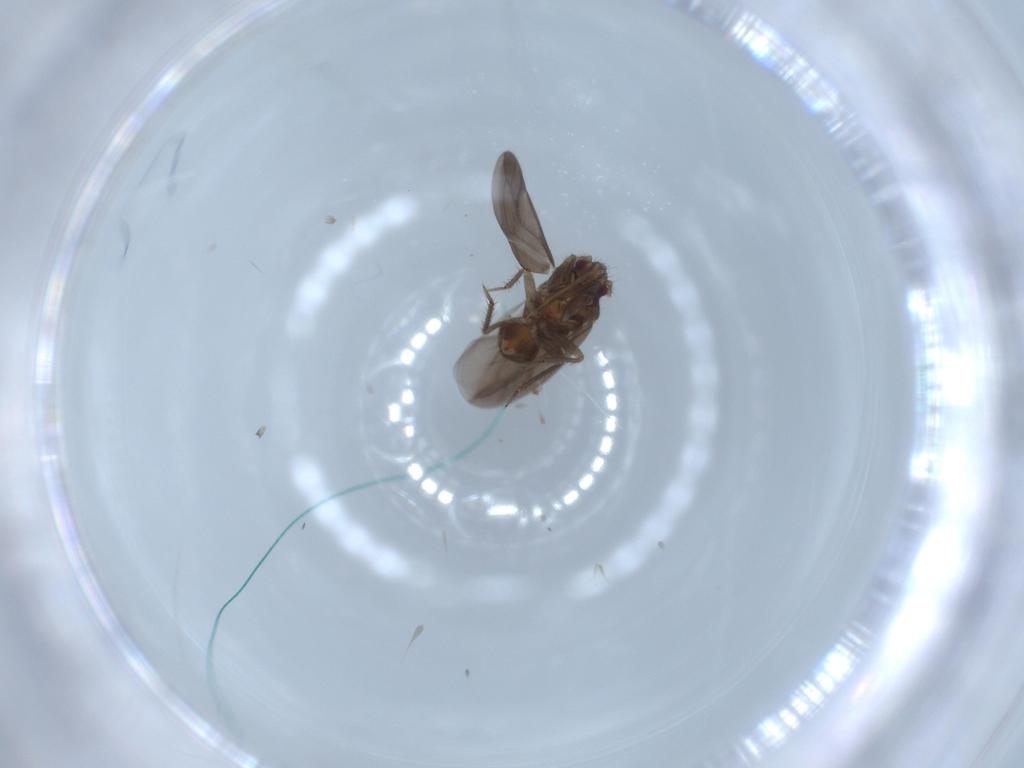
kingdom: Animalia
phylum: Arthropoda
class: Insecta
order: Hemiptera
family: Ceratocombidae
